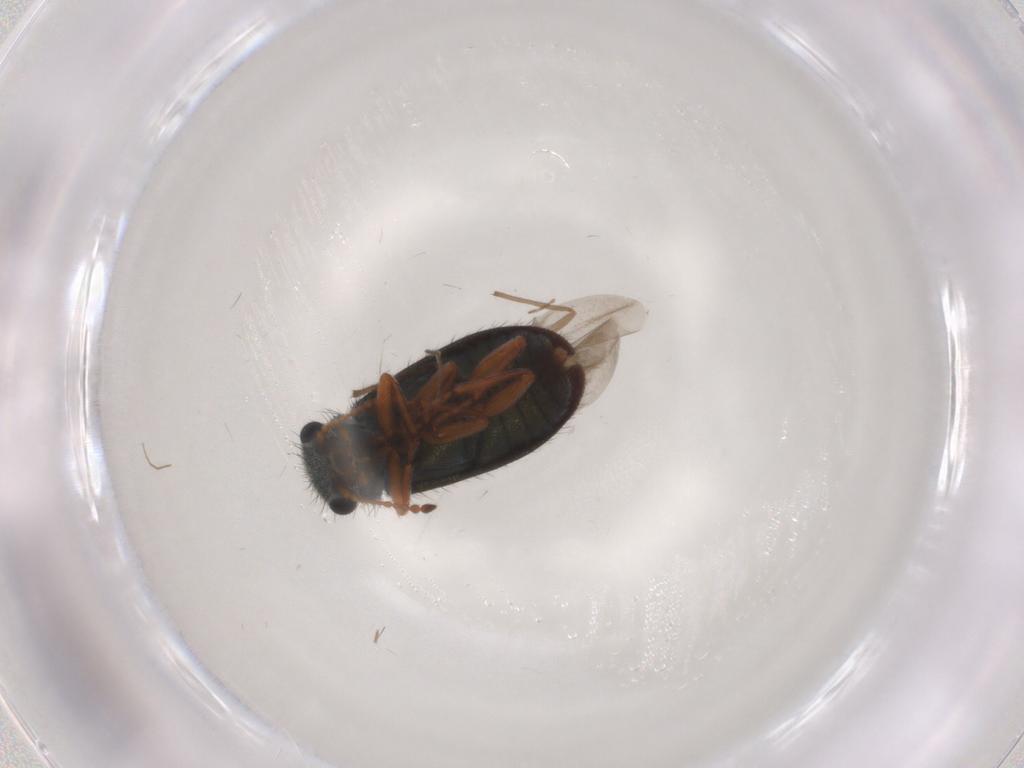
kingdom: Animalia
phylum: Arthropoda
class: Insecta
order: Coleoptera
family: Melyridae
